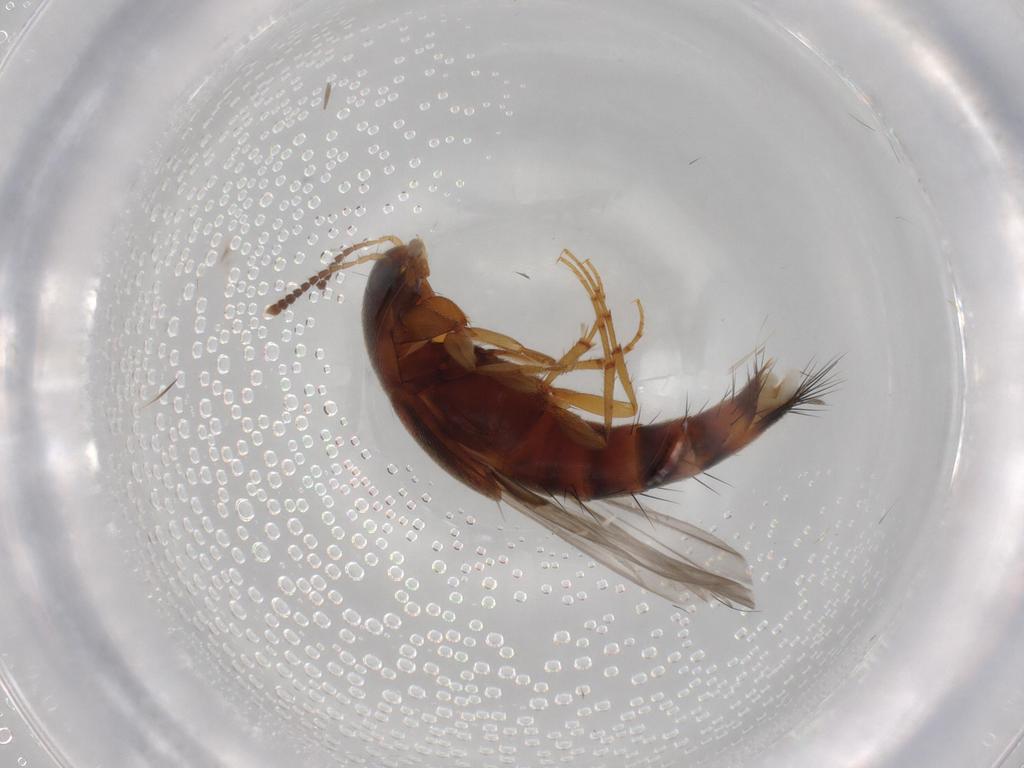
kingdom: Animalia
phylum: Arthropoda
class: Insecta
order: Coleoptera
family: Staphylinidae
